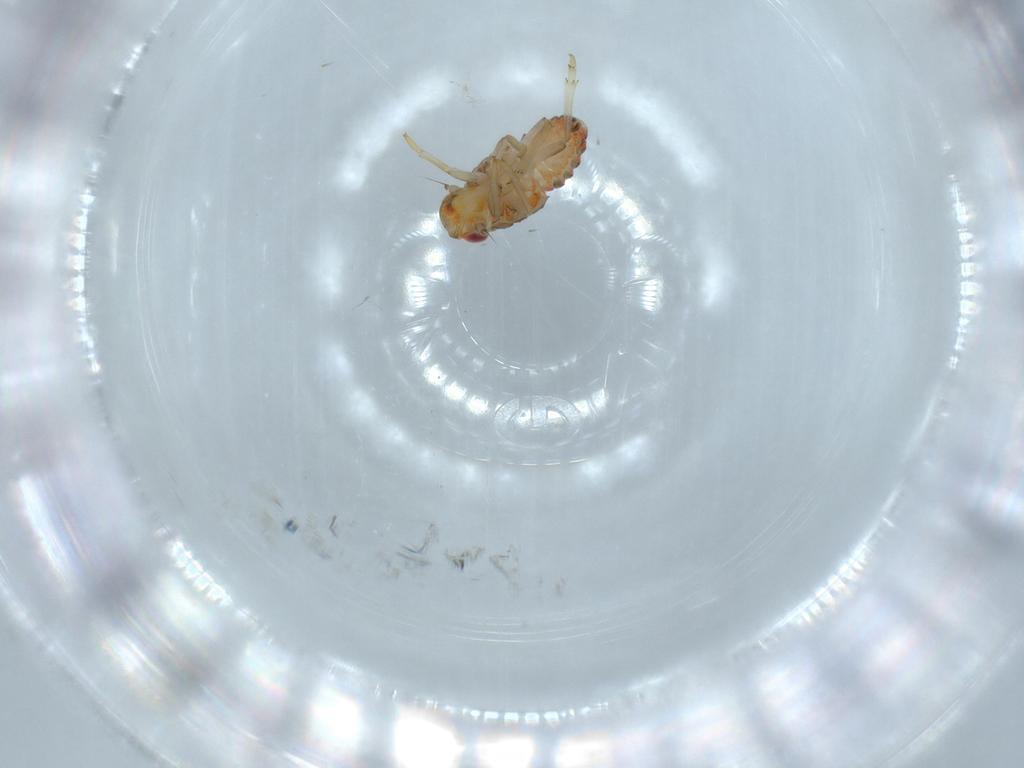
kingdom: Animalia
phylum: Arthropoda
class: Insecta
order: Hemiptera
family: Issidae
